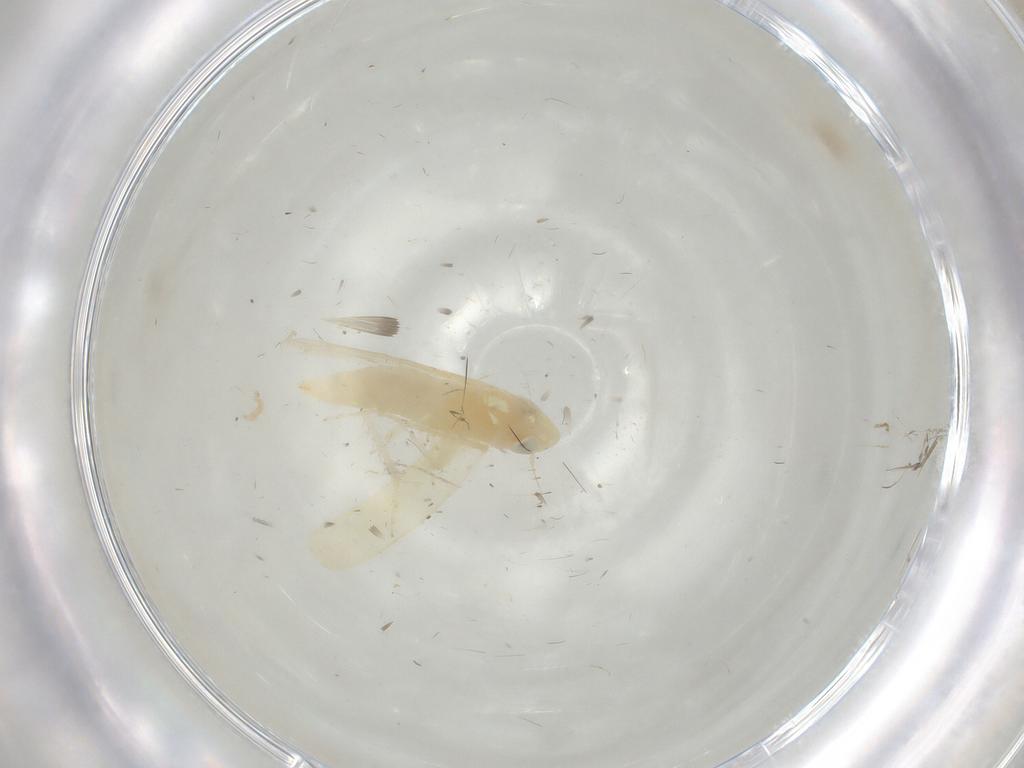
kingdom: Animalia
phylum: Arthropoda
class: Insecta
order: Hemiptera
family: Cicadellidae
